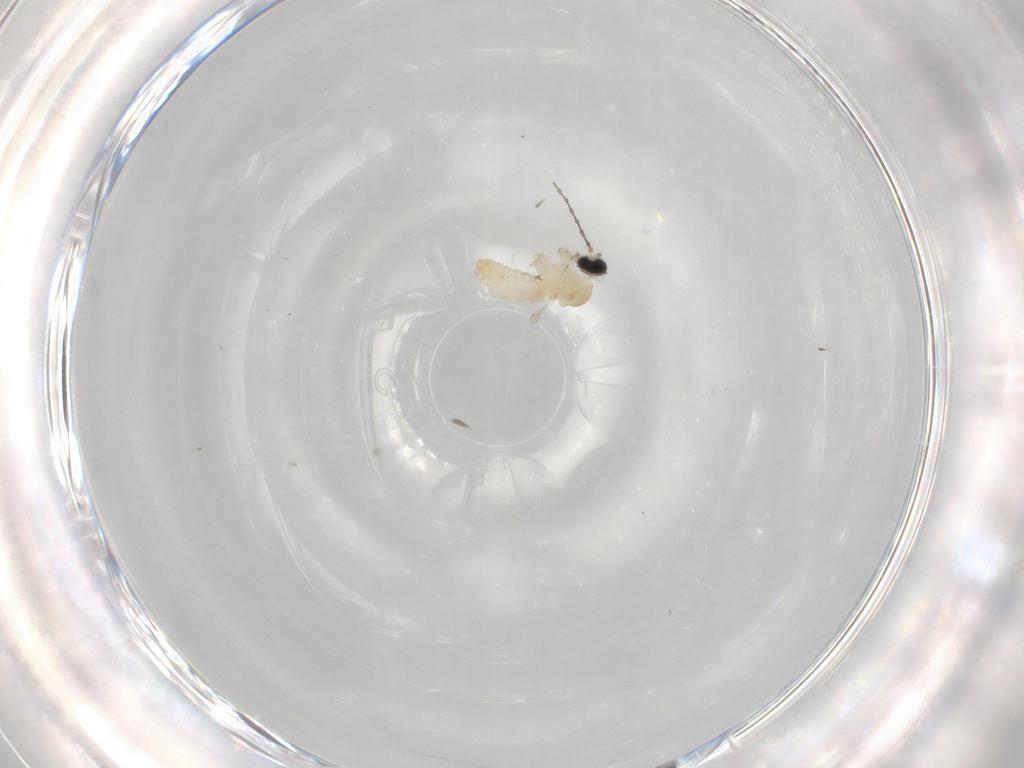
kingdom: Animalia
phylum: Arthropoda
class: Insecta
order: Diptera
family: Cecidomyiidae
